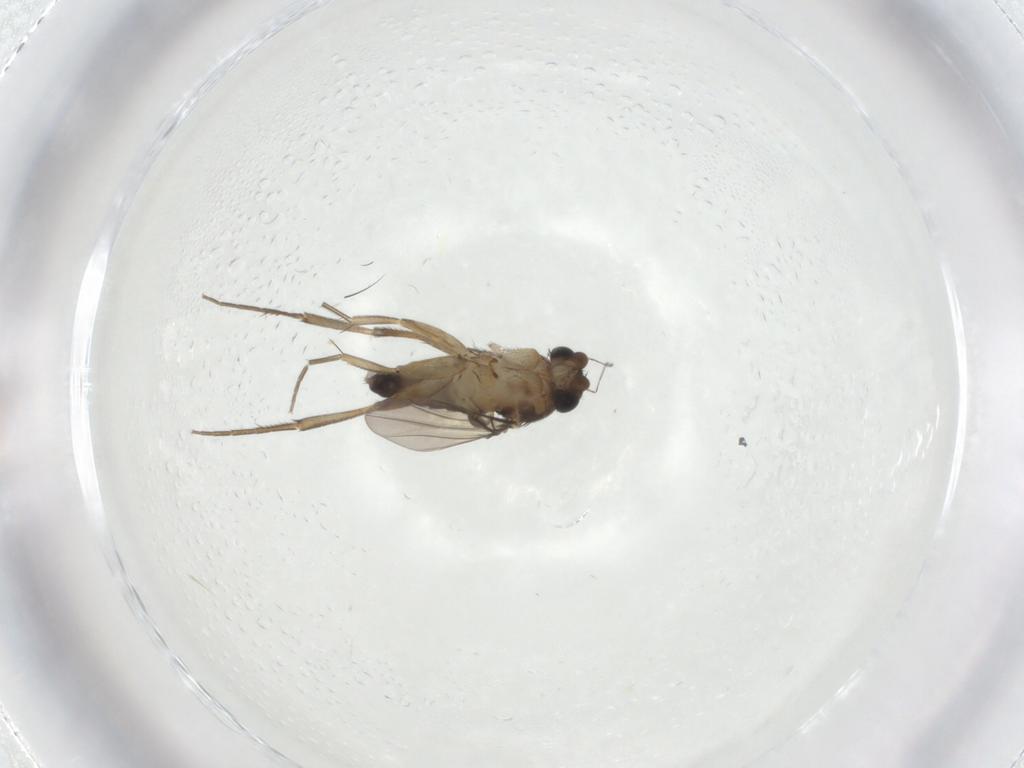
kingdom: Animalia
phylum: Arthropoda
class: Insecta
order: Diptera
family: Phoridae
